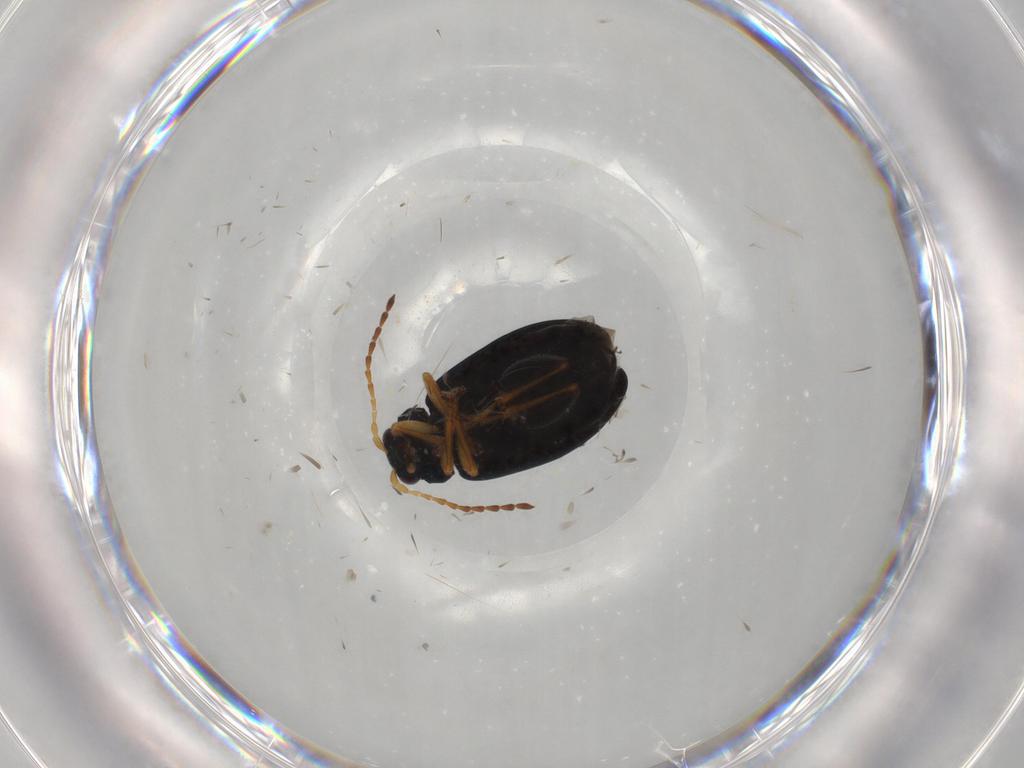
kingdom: Animalia
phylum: Arthropoda
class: Insecta
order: Coleoptera
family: Chrysomelidae
